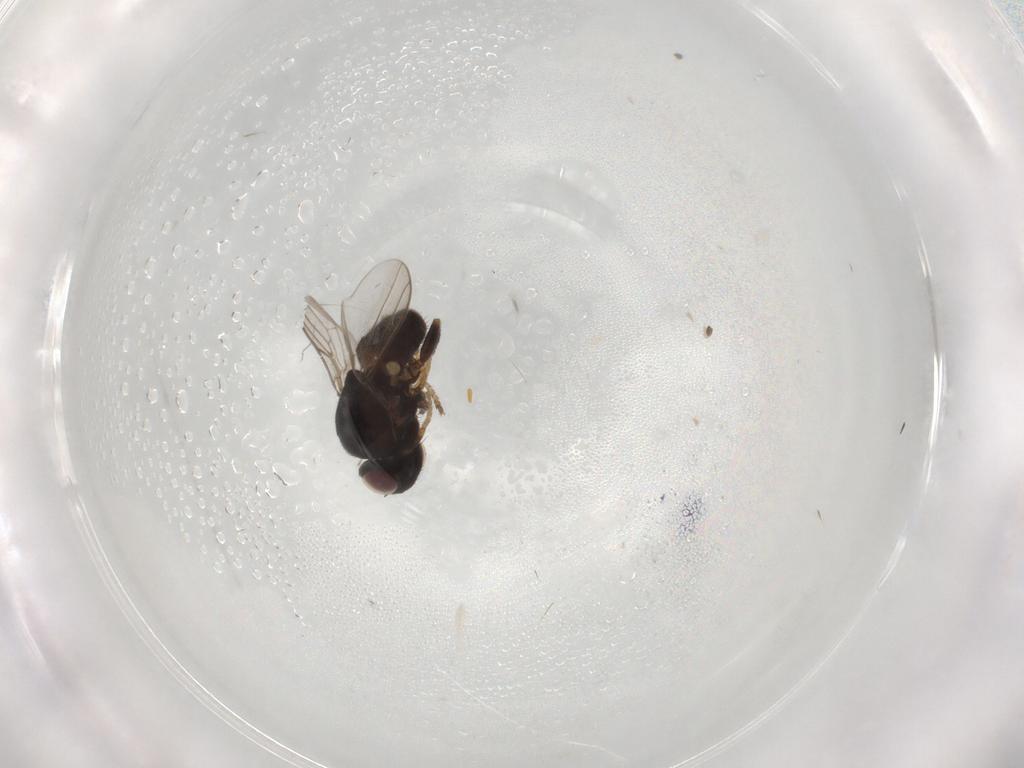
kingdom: Animalia
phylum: Arthropoda
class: Insecta
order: Diptera
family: Chloropidae
